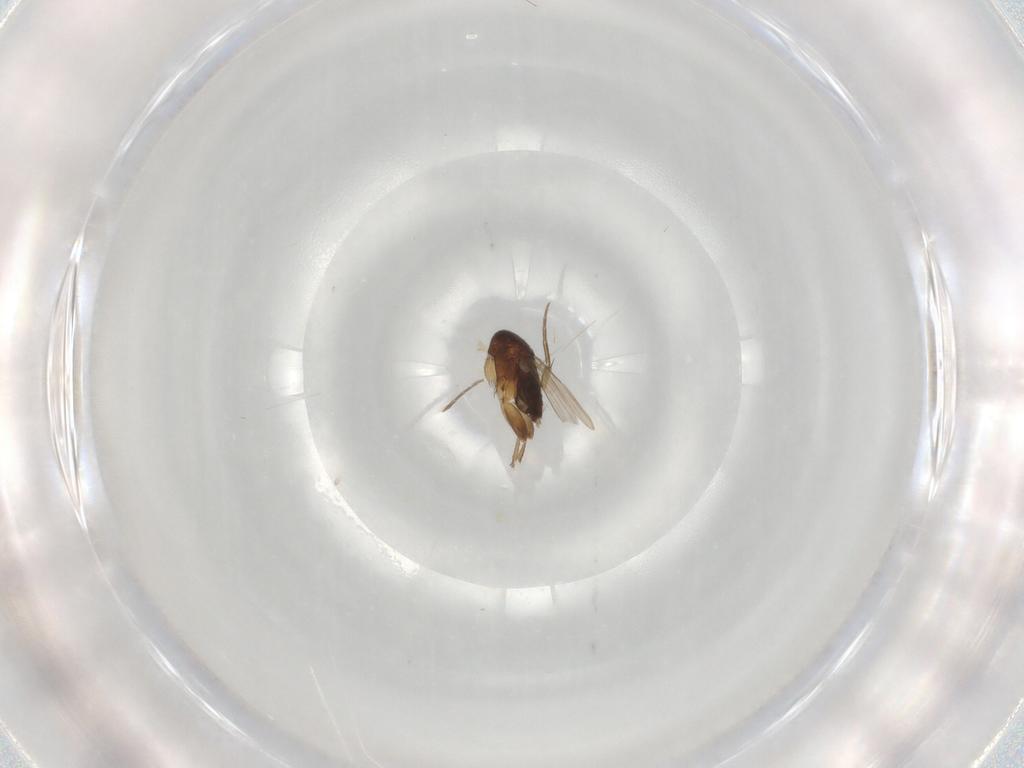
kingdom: Animalia
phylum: Arthropoda
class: Insecta
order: Diptera
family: Phoridae
